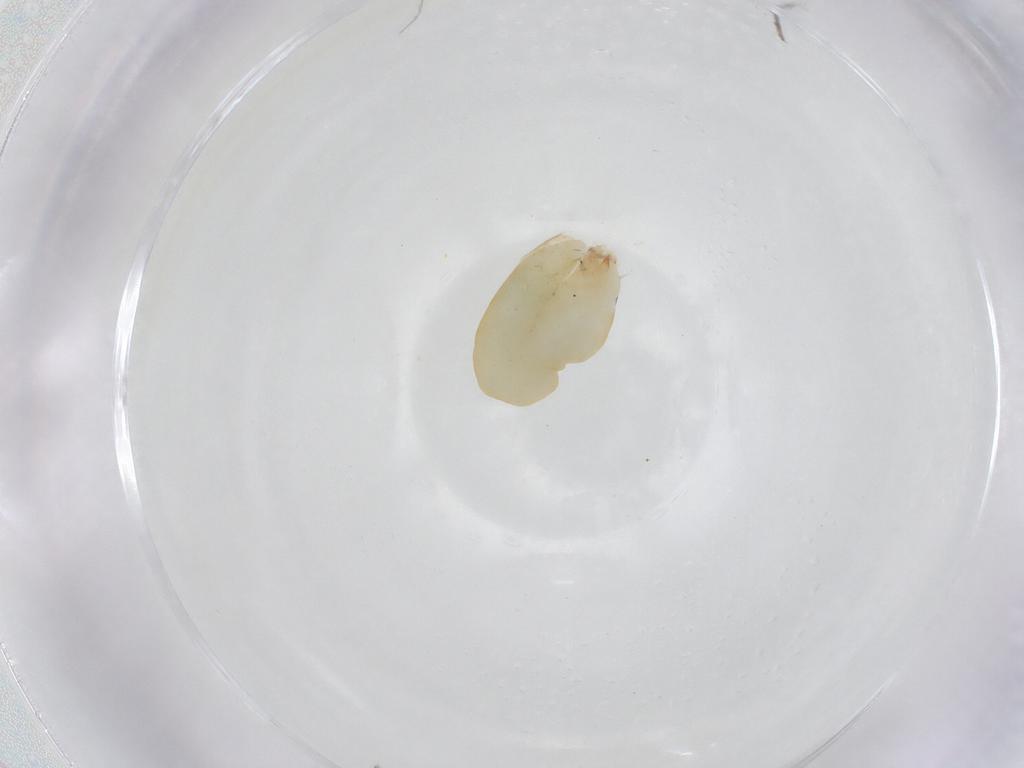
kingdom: Animalia
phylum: Arthropoda
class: Insecta
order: Hymenoptera
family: Dryinidae
